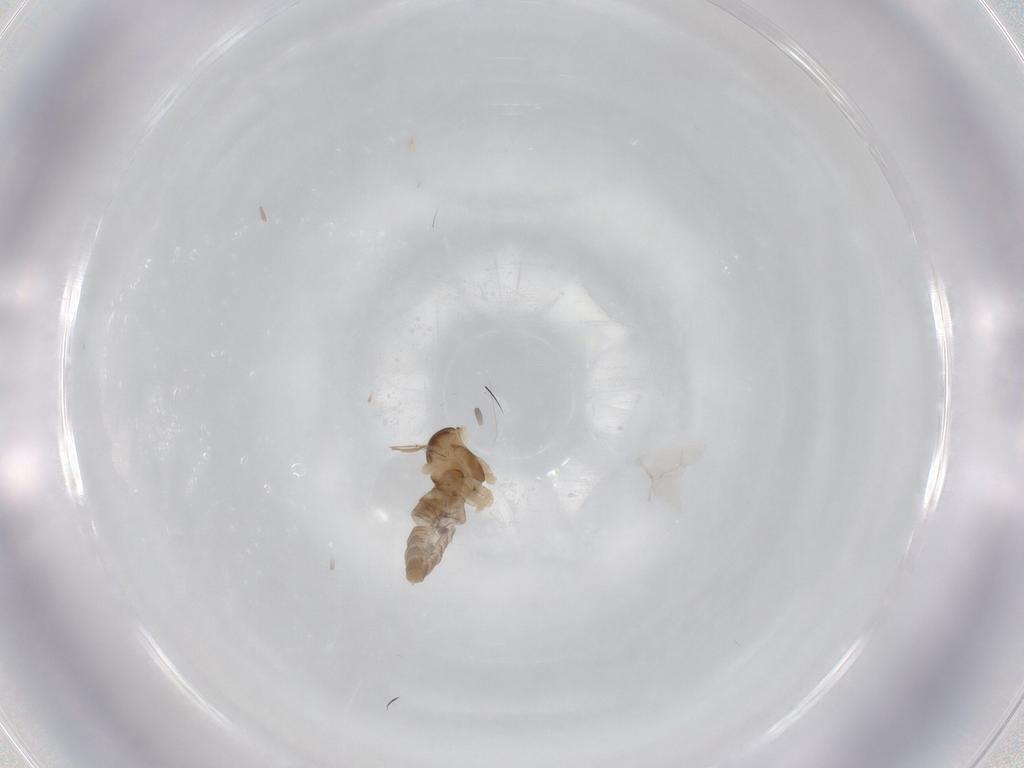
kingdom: Animalia
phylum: Arthropoda
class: Insecta
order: Diptera
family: Cecidomyiidae
